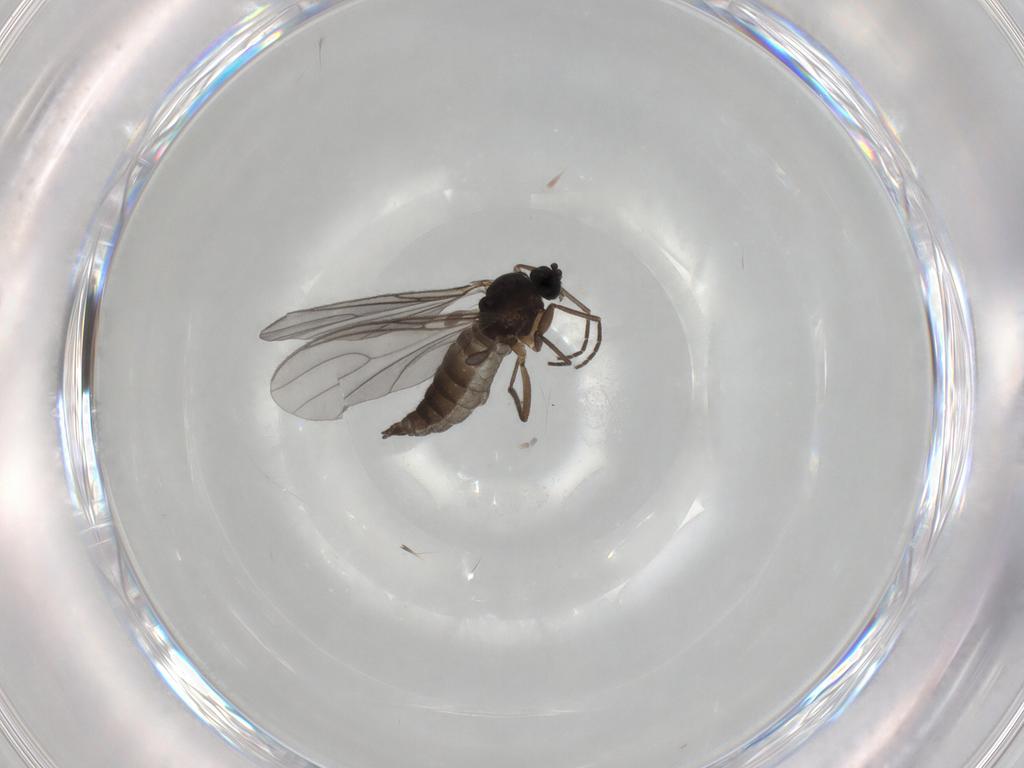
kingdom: Animalia
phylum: Arthropoda
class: Insecta
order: Diptera
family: Sciaridae
